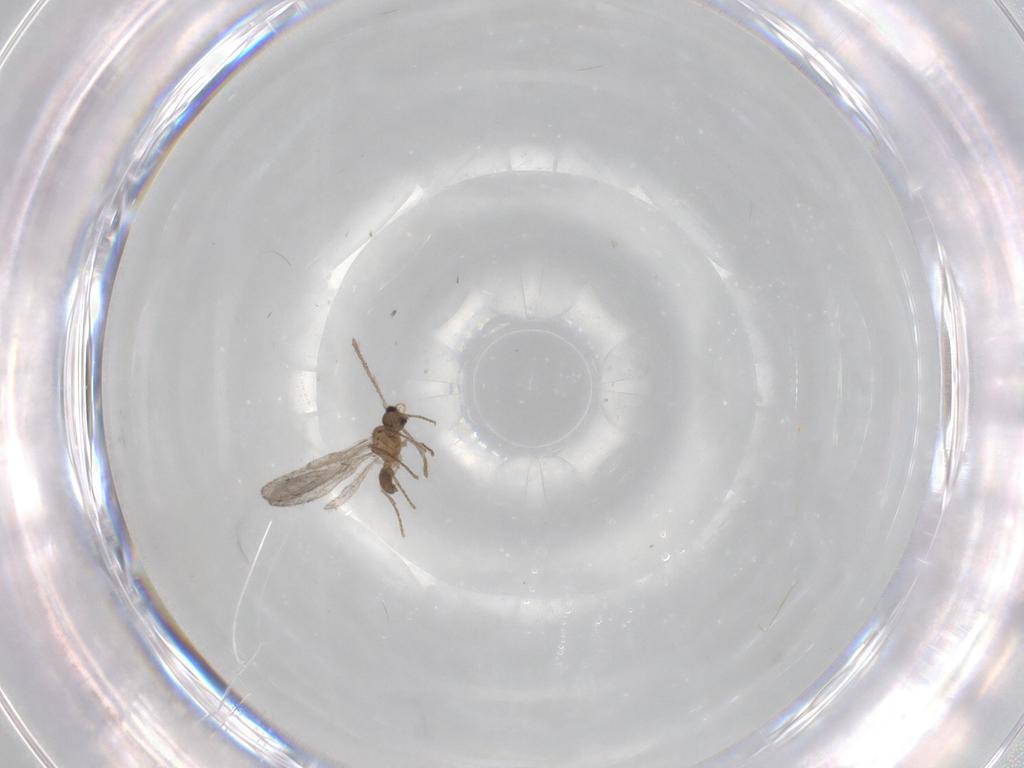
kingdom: Animalia
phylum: Arthropoda
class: Insecta
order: Hymenoptera
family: Formicidae
